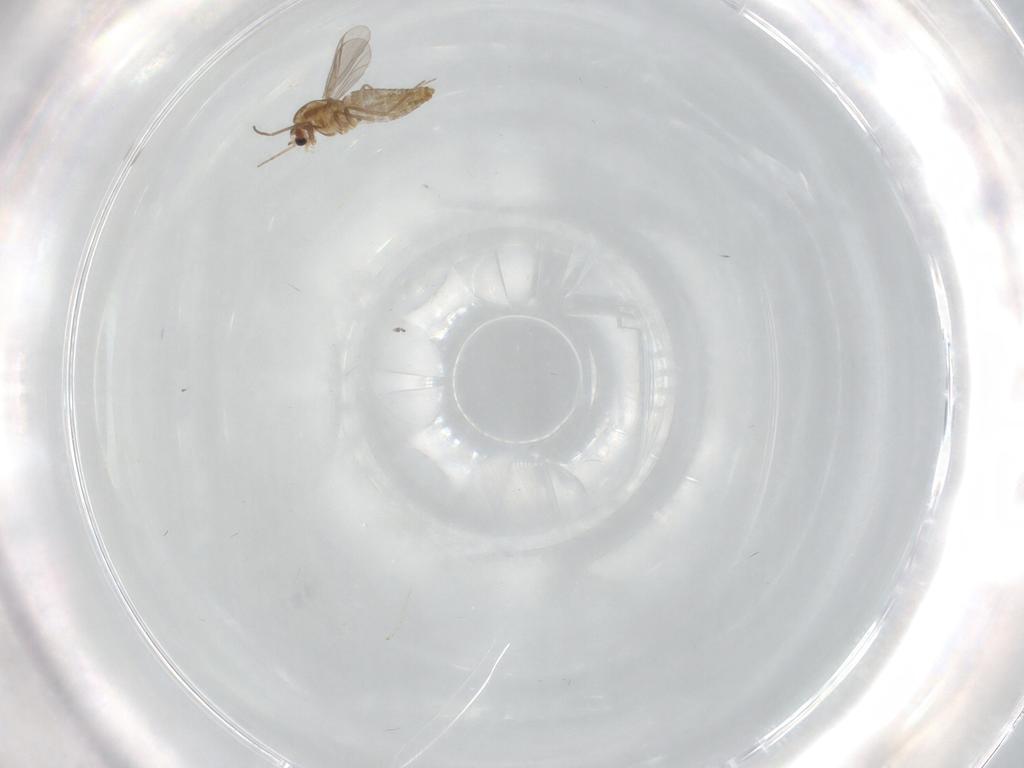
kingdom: Animalia
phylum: Arthropoda
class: Insecta
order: Diptera
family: Chironomidae
